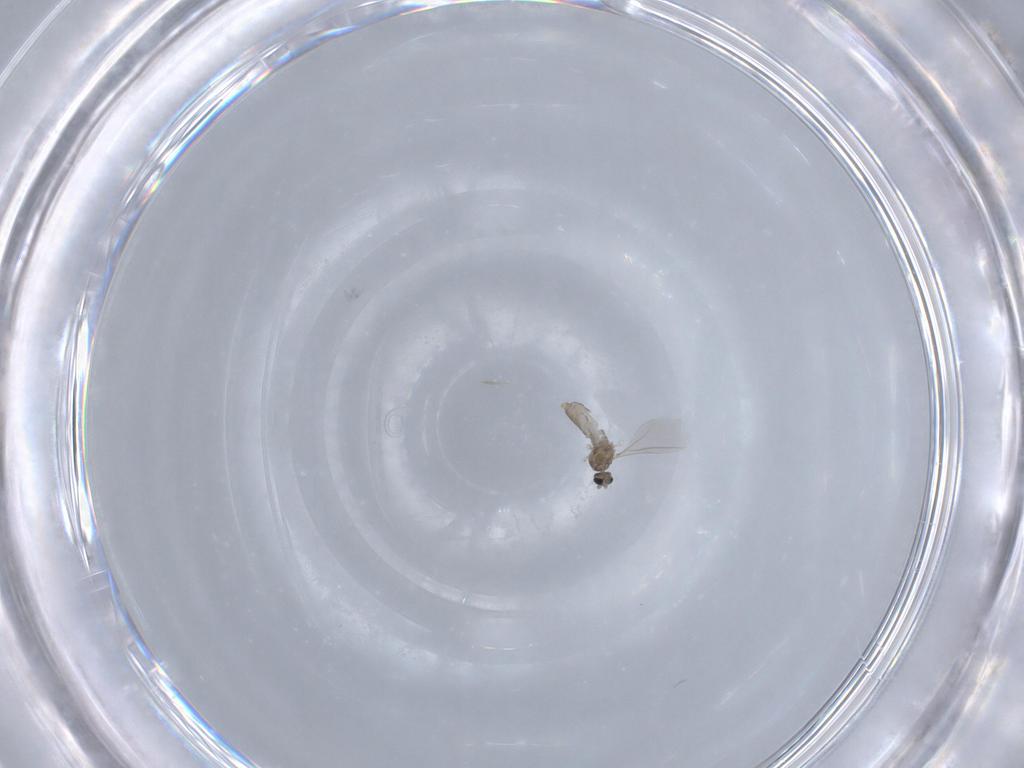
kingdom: Animalia
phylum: Arthropoda
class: Insecta
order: Diptera
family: Cecidomyiidae
